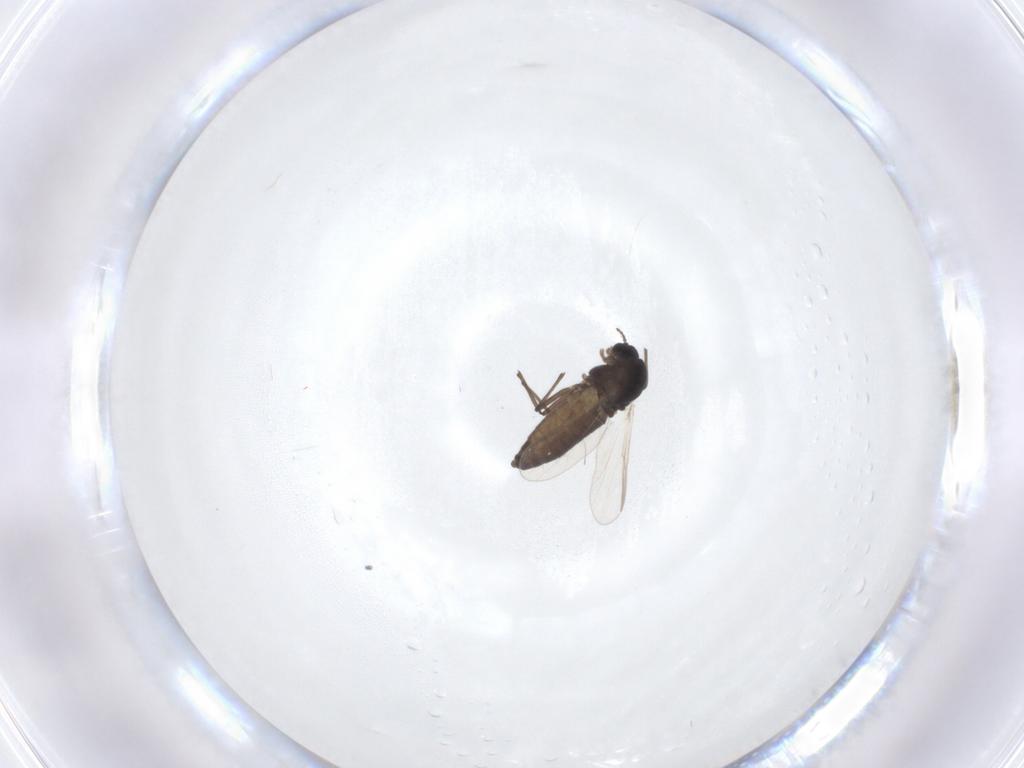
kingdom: Animalia
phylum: Arthropoda
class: Insecta
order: Diptera
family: Chironomidae
